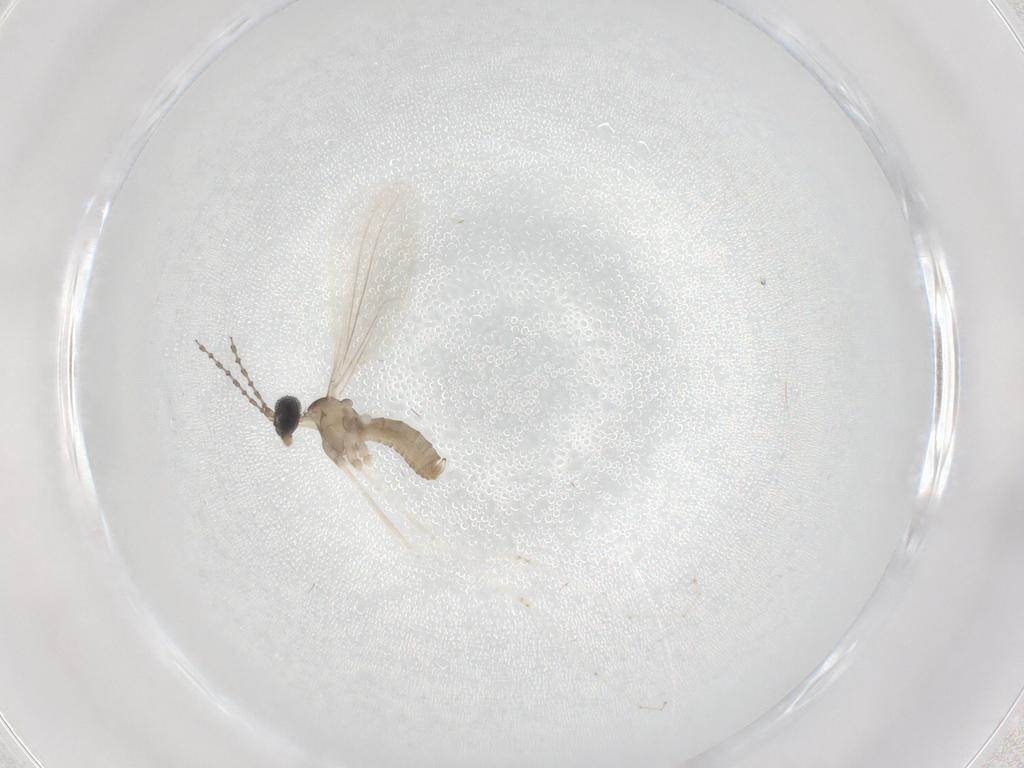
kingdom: Animalia
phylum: Arthropoda
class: Insecta
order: Diptera
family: Cecidomyiidae
